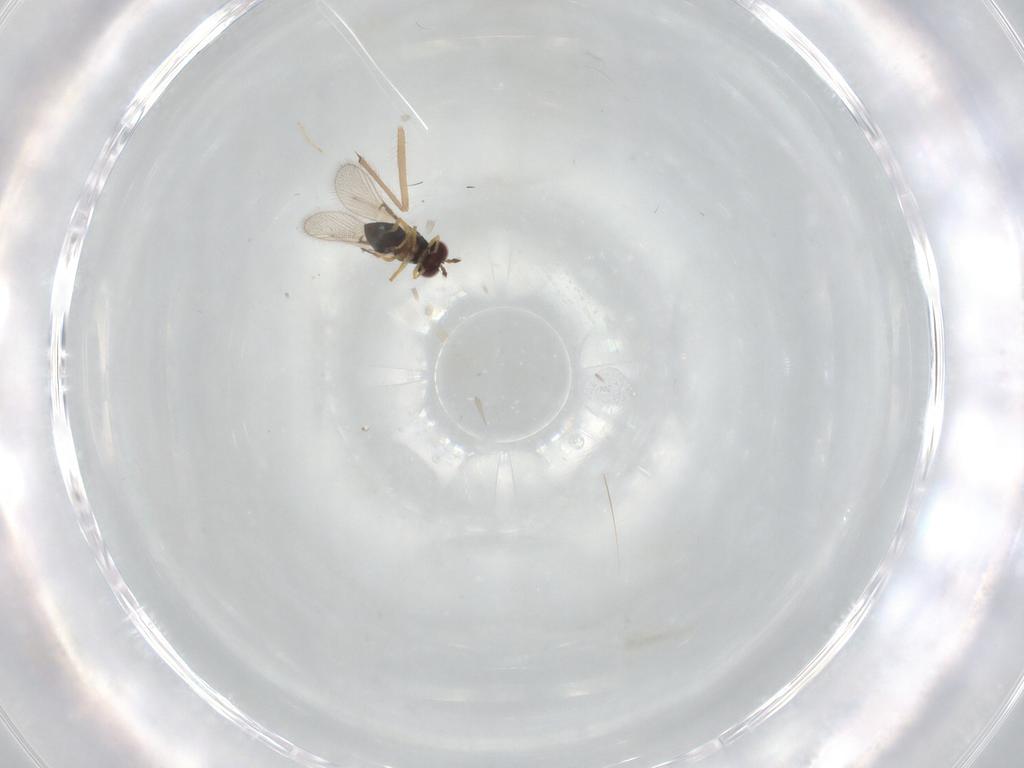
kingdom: Animalia
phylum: Arthropoda
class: Insecta
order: Hymenoptera
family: Trichogrammatidae
